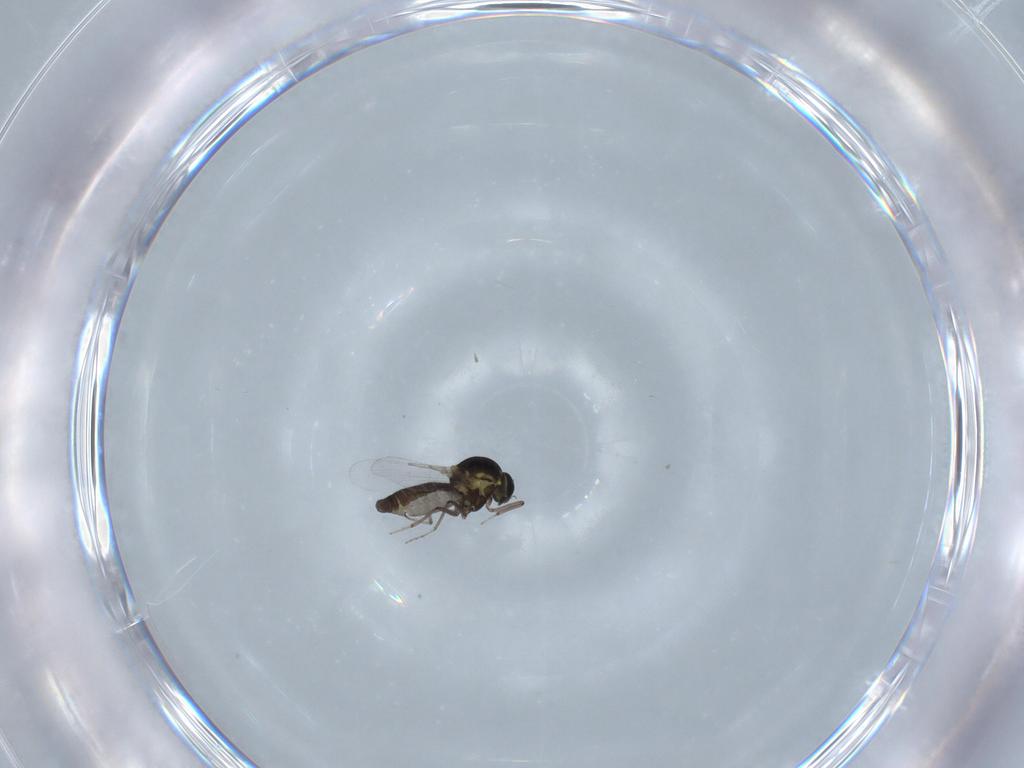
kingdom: Animalia
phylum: Arthropoda
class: Insecta
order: Diptera
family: Ceratopogonidae
